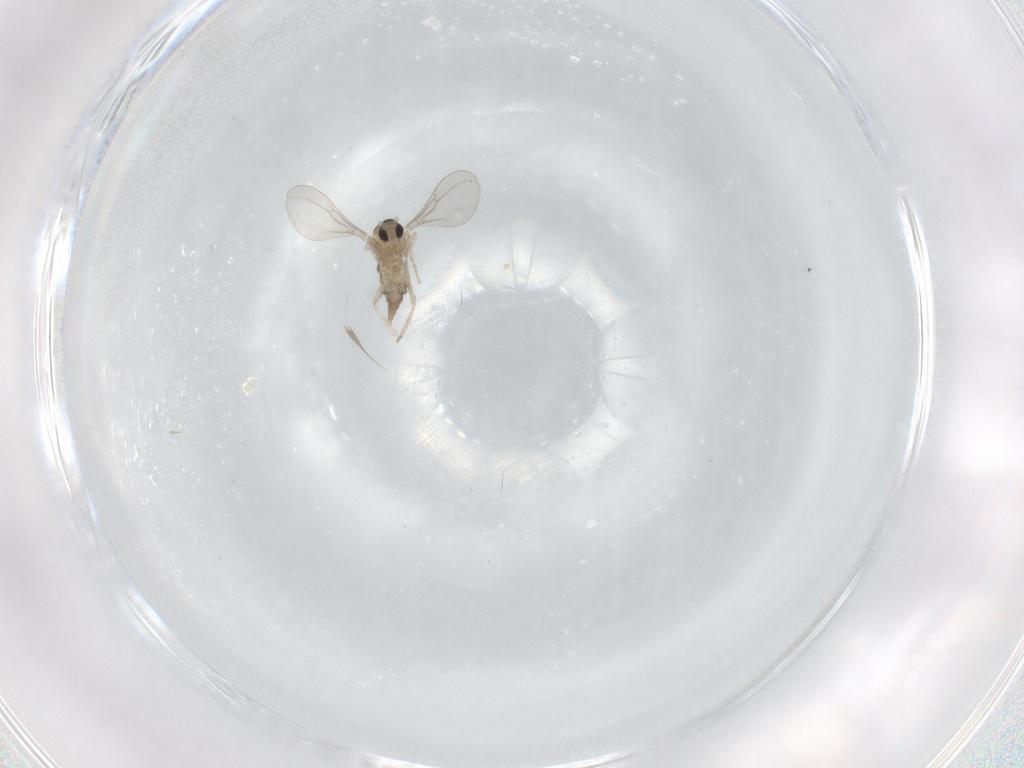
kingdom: Animalia
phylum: Arthropoda
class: Insecta
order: Diptera
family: Cecidomyiidae
